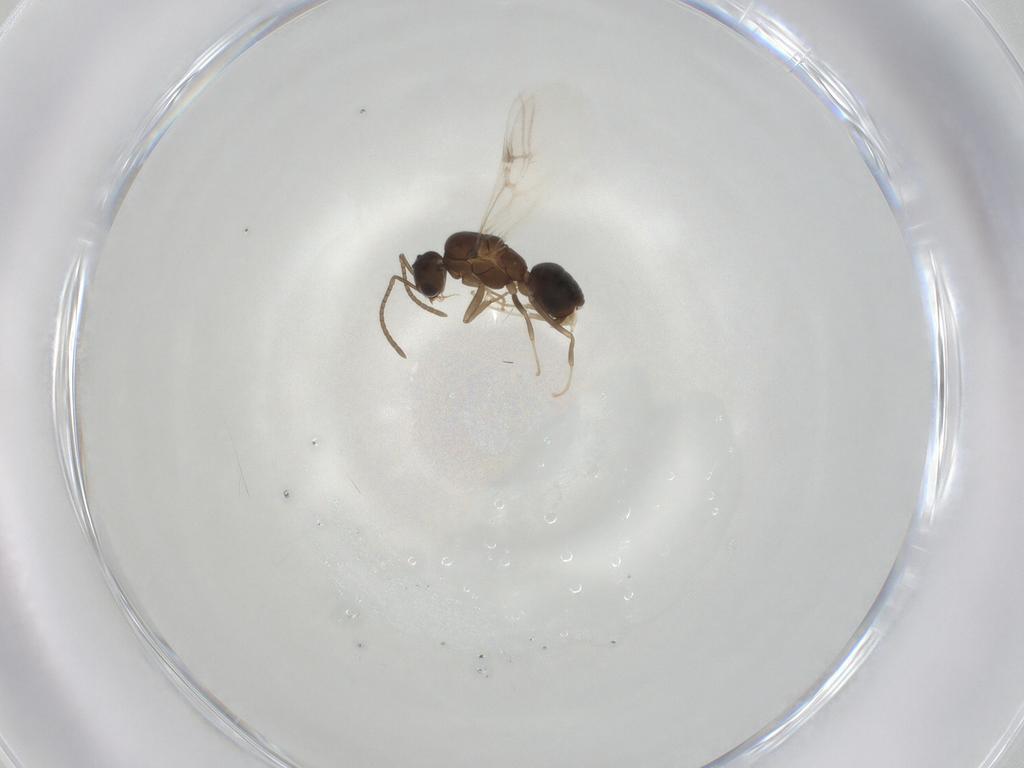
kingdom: Animalia
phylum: Arthropoda
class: Insecta
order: Hymenoptera
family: Formicidae
